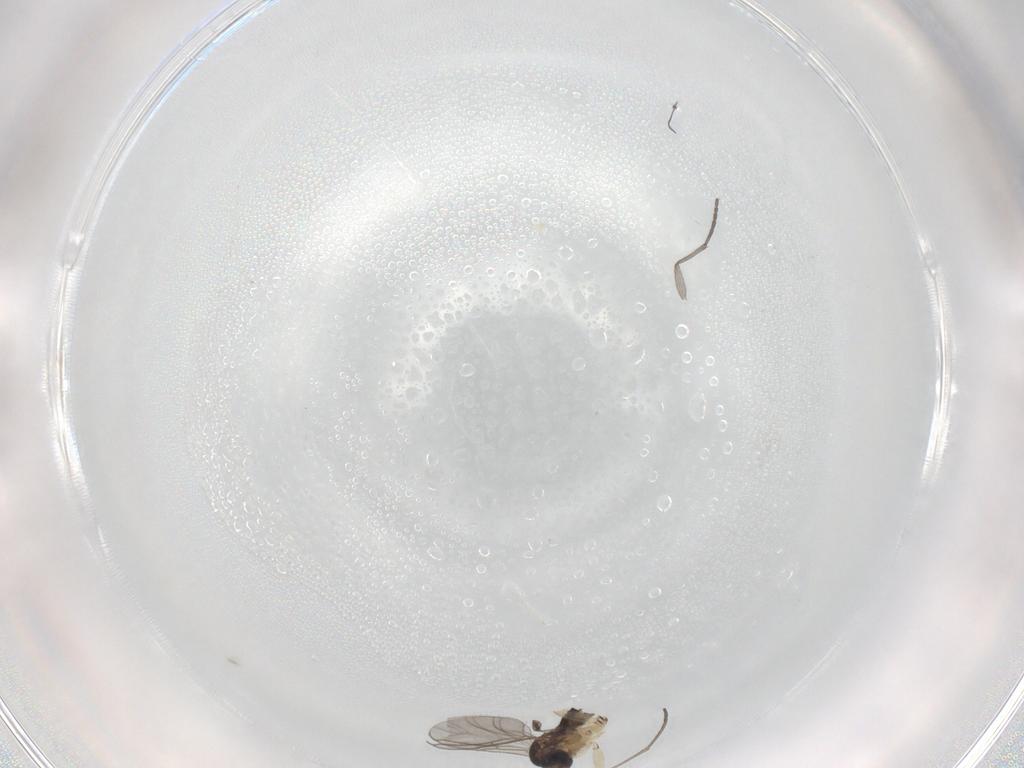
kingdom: Animalia
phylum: Arthropoda
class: Insecta
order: Diptera
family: Sciaridae
